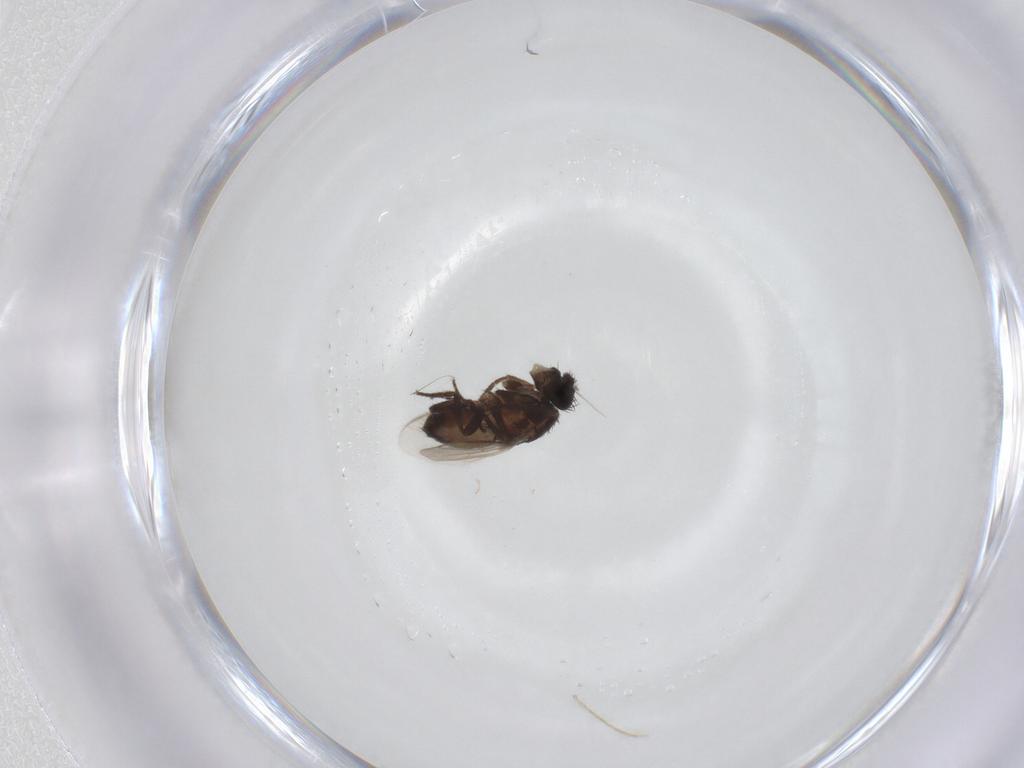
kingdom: Animalia
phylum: Arthropoda
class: Insecta
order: Diptera
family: Sphaeroceridae
